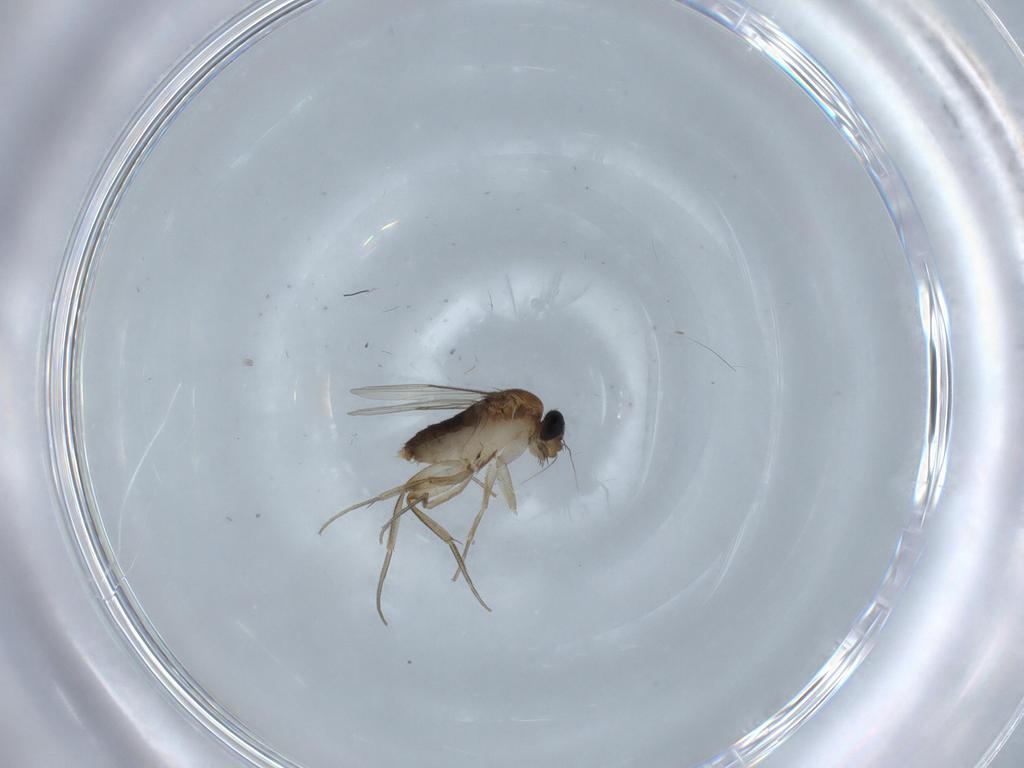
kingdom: Animalia
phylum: Arthropoda
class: Insecta
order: Diptera
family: Phoridae
